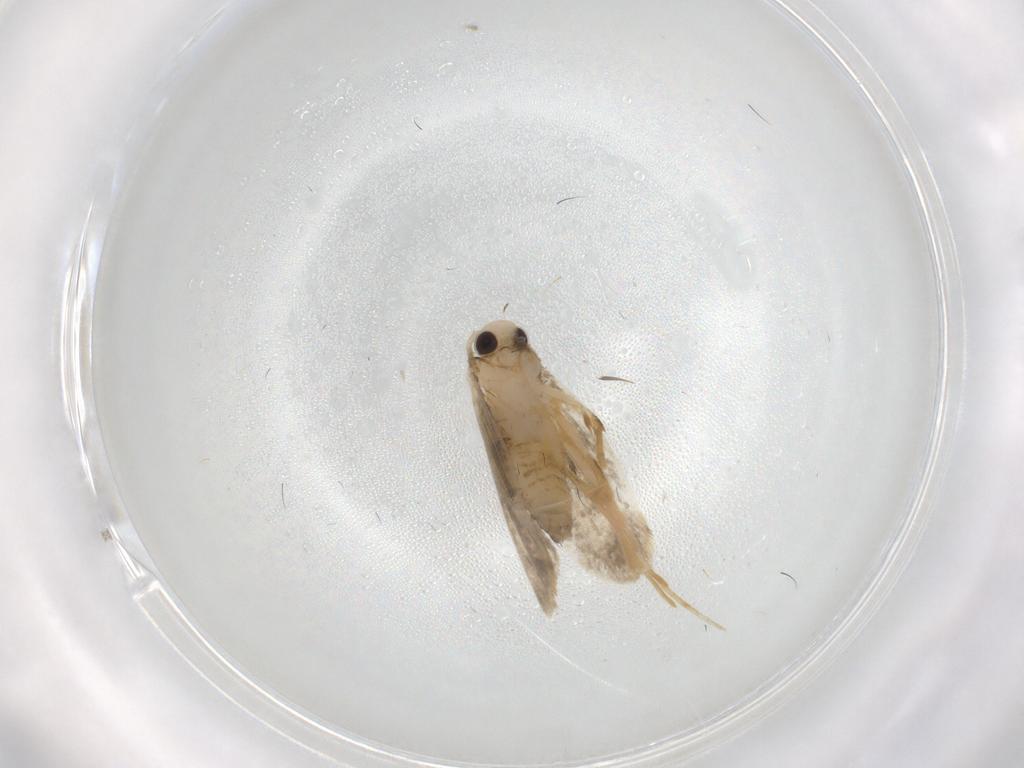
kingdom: Animalia
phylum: Arthropoda
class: Insecta
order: Lepidoptera
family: Psychidae
